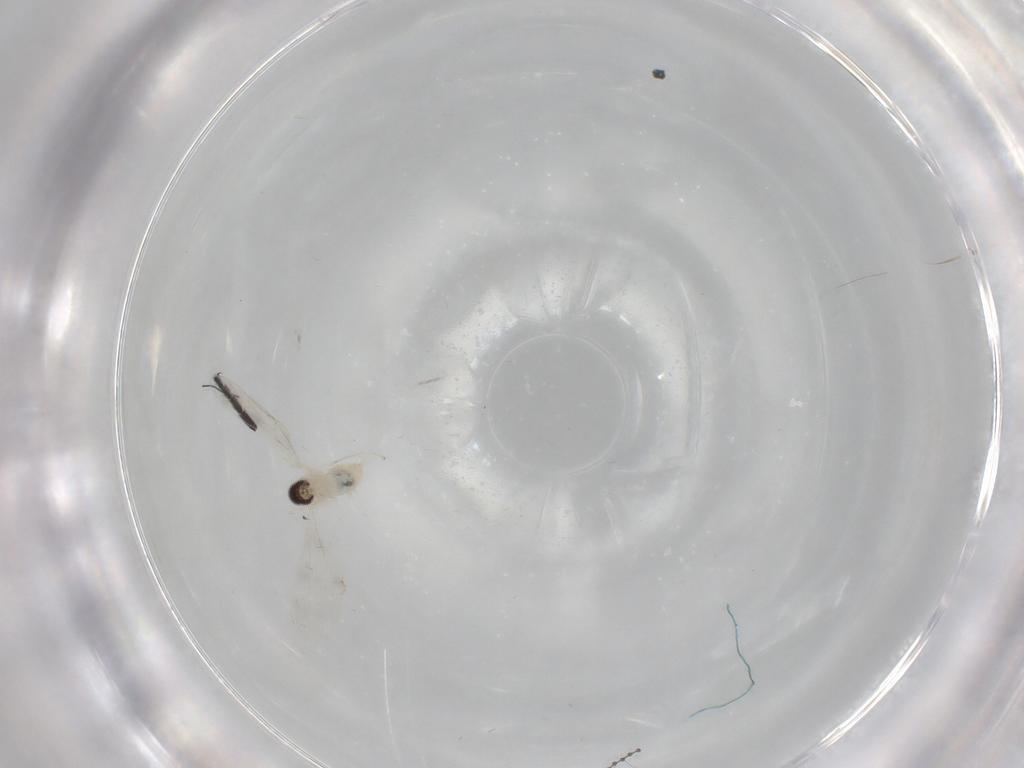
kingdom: Animalia
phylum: Arthropoda
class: Insecta
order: Diptera
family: Cecidomyiidae
